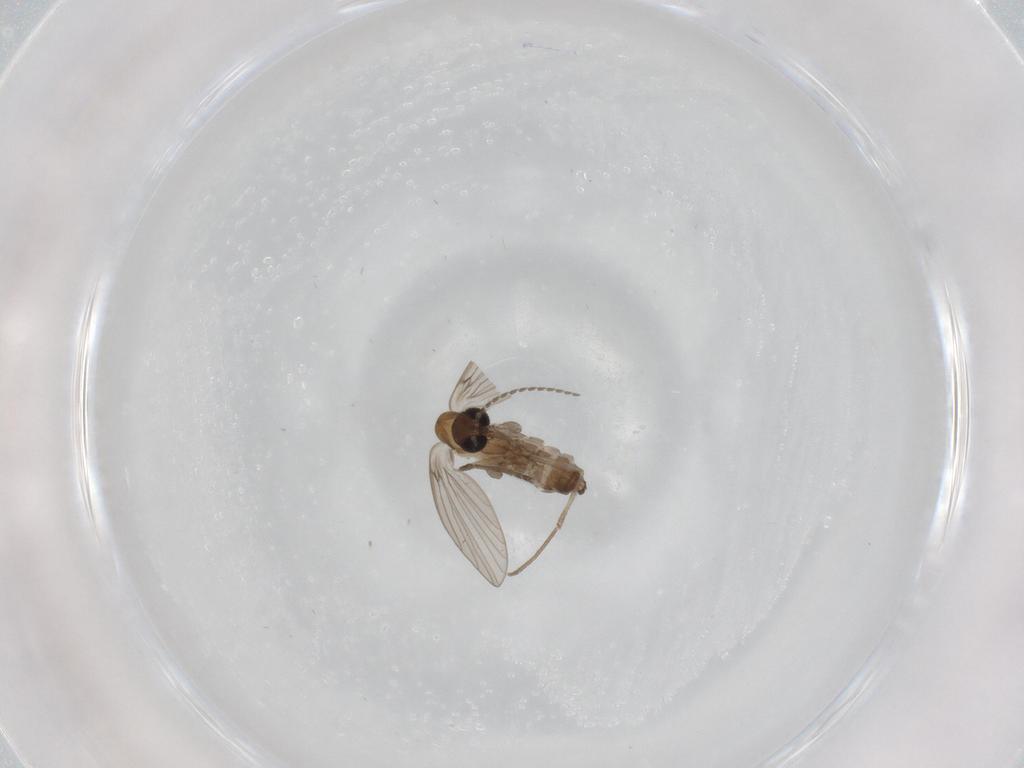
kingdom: Animalia
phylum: Arthropoda
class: Insecta
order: Diptera
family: Psychodidae
